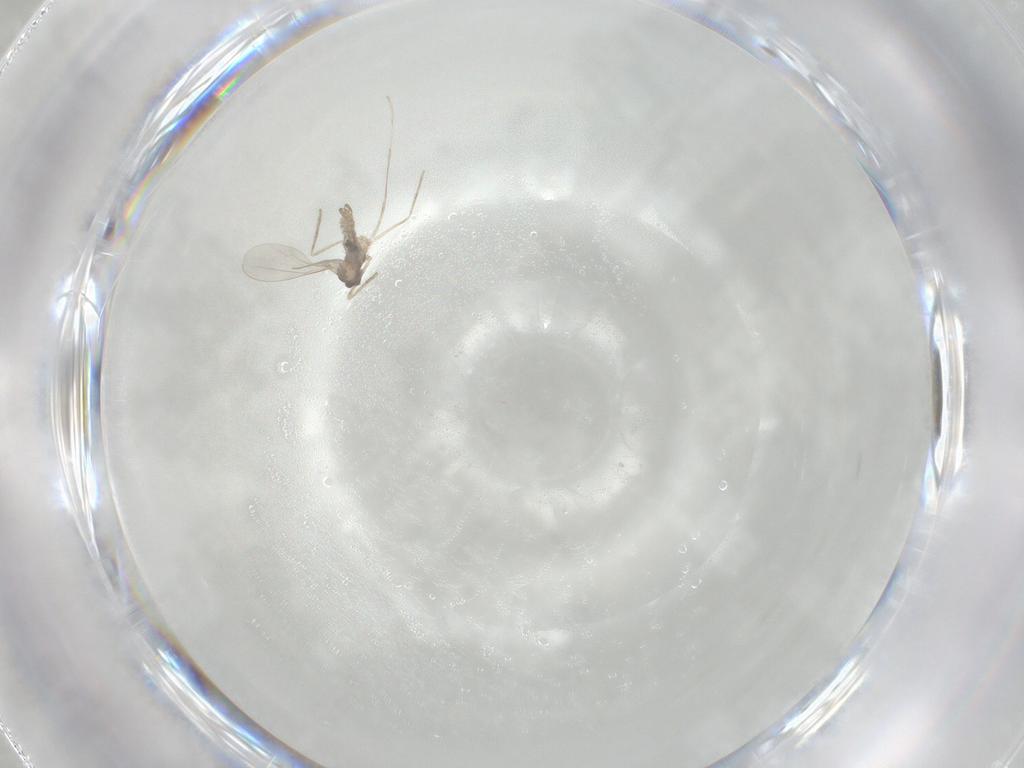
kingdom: Animalia
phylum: Arthropoda
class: Insecta
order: Diptera
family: Cecidomyiidae
